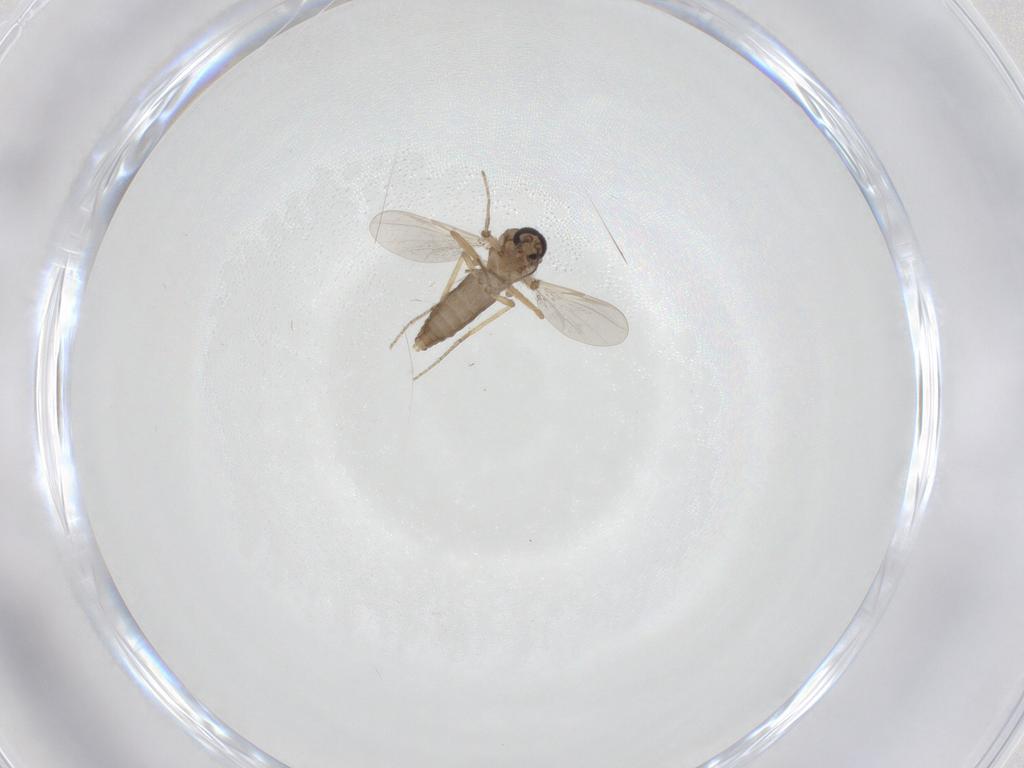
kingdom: Animalia
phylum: Arthropoda
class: Insecta
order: Diptera
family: Ceratopogonidae
